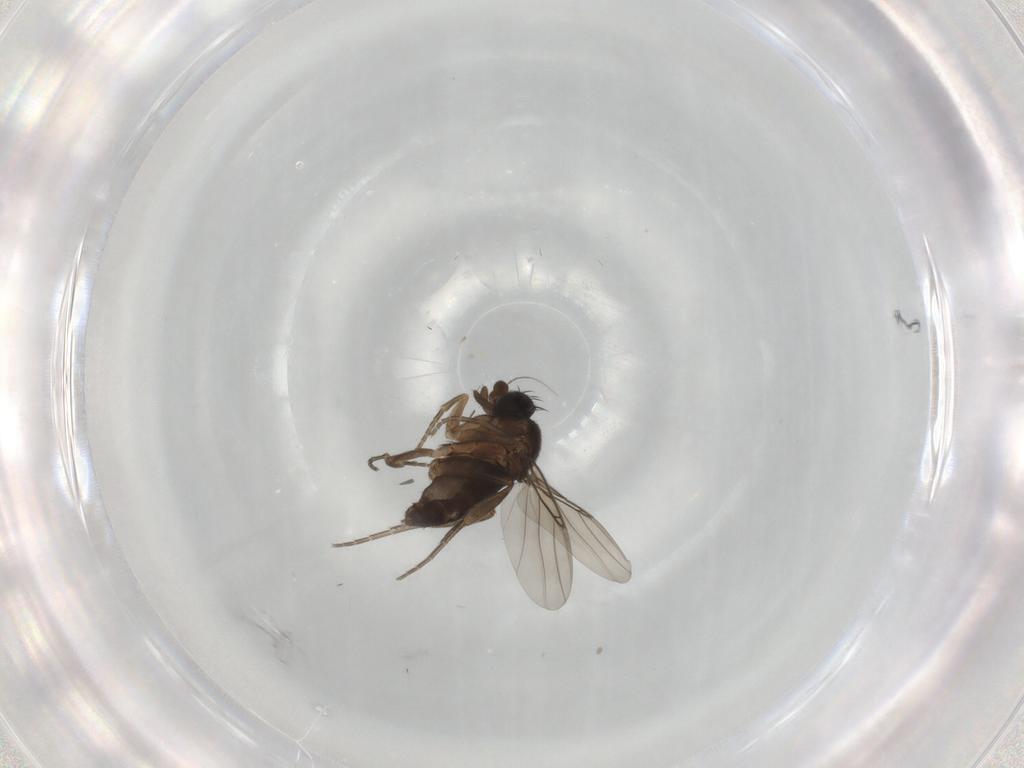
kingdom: Animalia
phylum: Arthropoda
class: Insecta
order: Diptera
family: Phoridae
